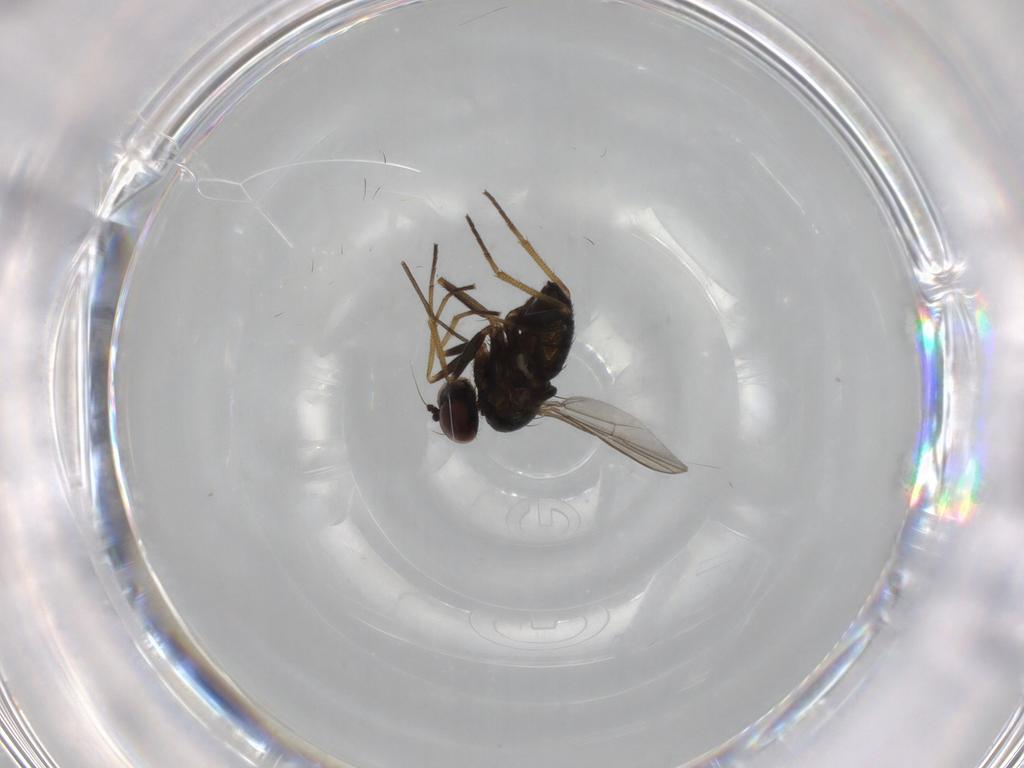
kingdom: Animalia
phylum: Arthropoda
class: Insecta
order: Diptera
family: Dolichopodidae
